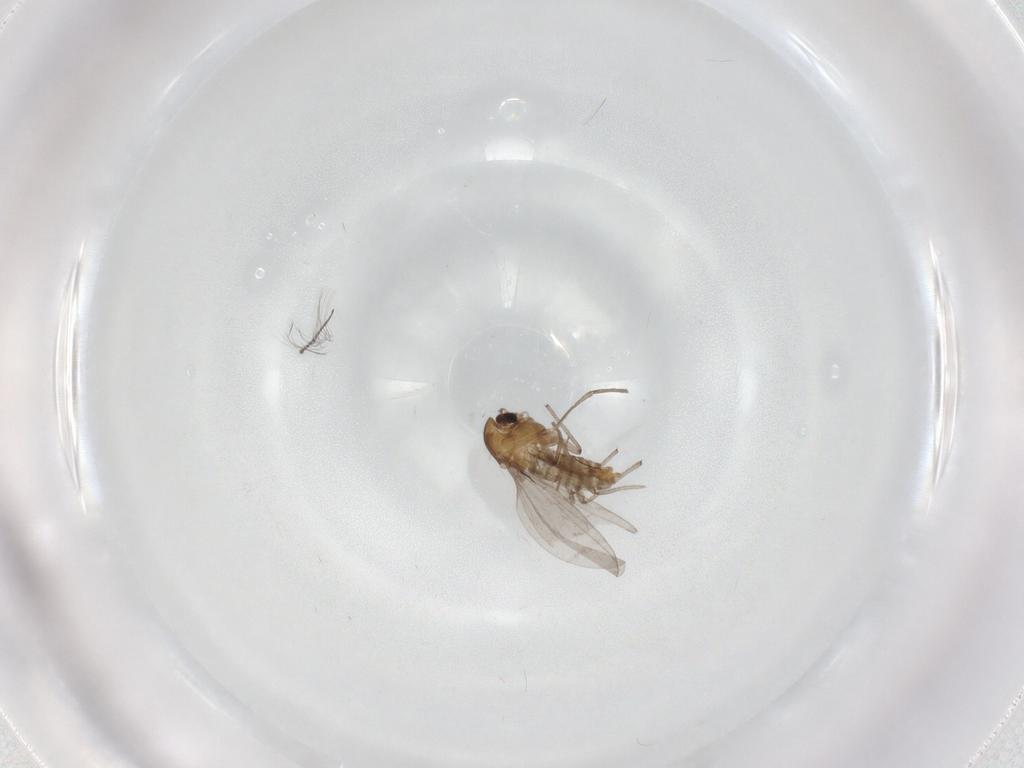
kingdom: Animalia
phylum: Arthropoda
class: Insecta
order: Diptera
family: Chironomidae
